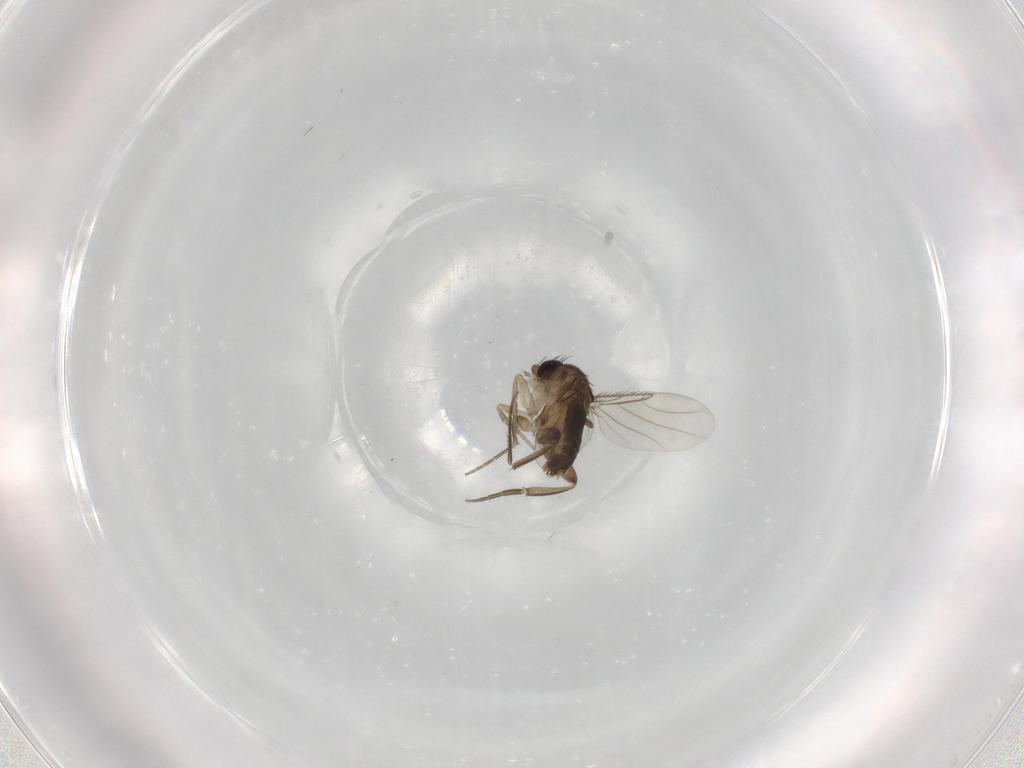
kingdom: Animalia
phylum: Arthropoda
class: Insecta
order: Diptera
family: Phoridae
